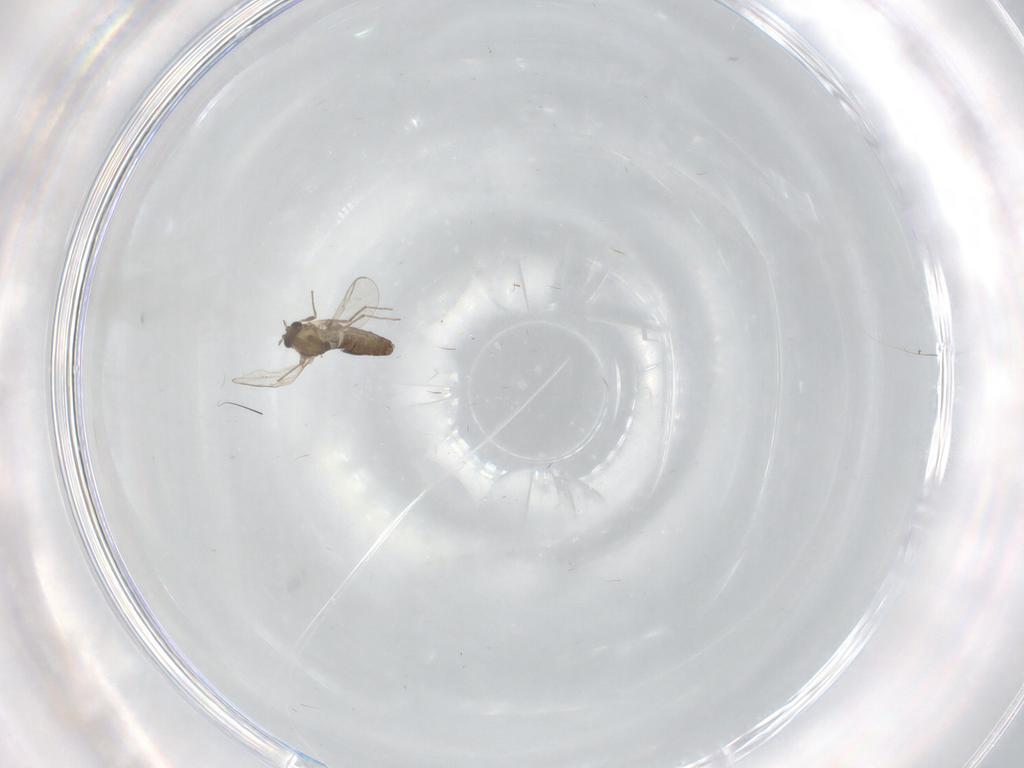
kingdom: Animalia
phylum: Arthropoda
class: Insecta
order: Diptera
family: Chironomidae
